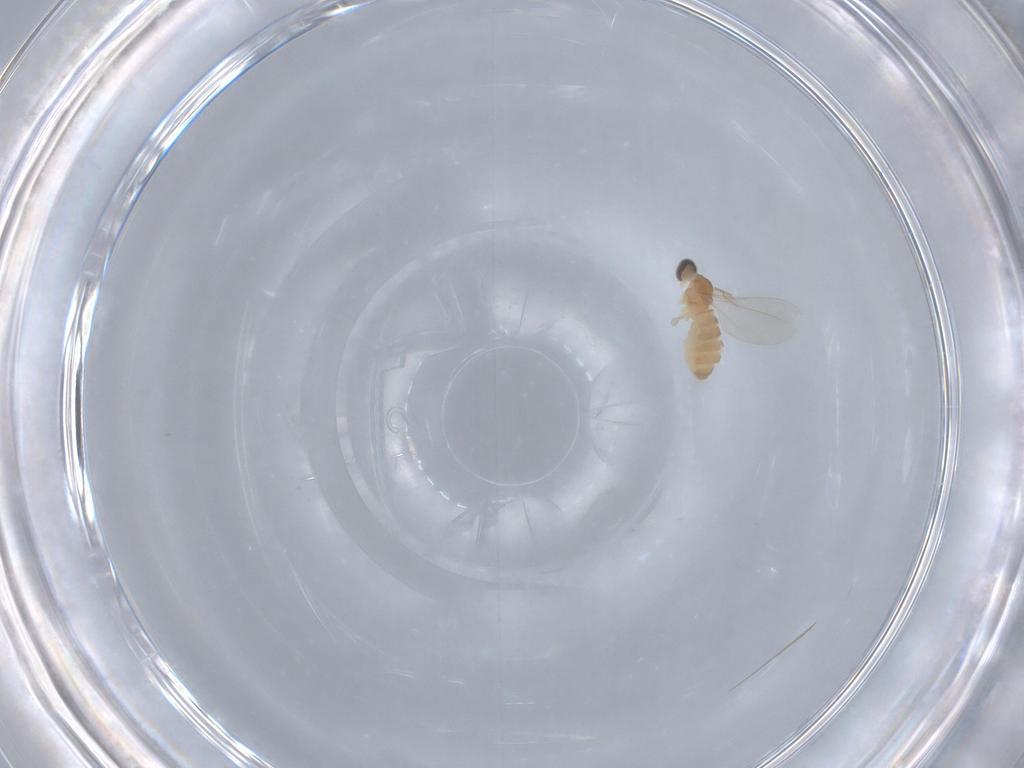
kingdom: Animalia
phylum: Arthropoda
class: Insecta
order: Diptera
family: Cecidomyiidae
